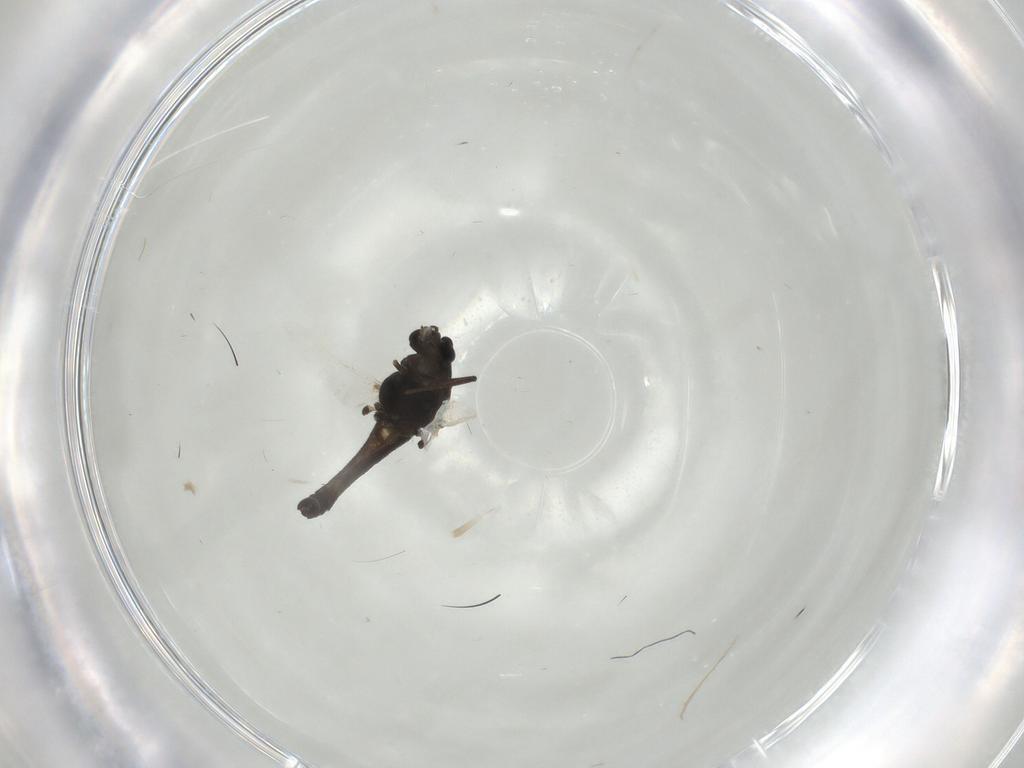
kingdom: Animalia
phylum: Arthropoda
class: Insecta
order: Diptera
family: Chironomidae
